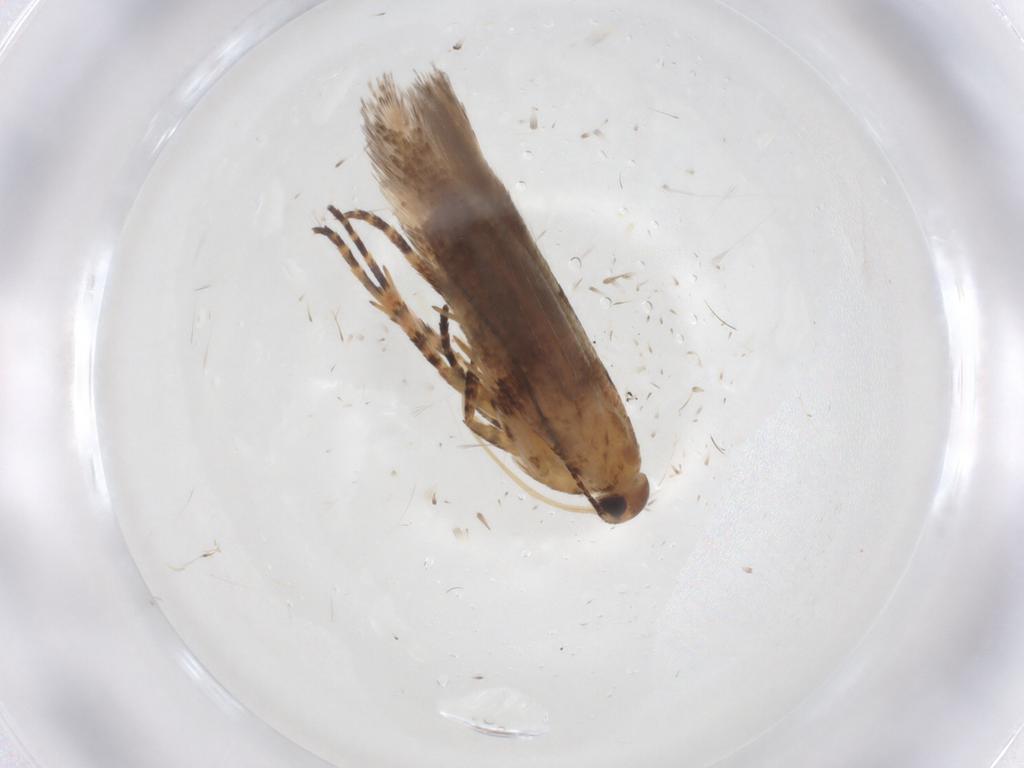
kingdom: Animalia
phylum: Arthropoda
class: Insecta
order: Lepidoptera
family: Gelechiidae
